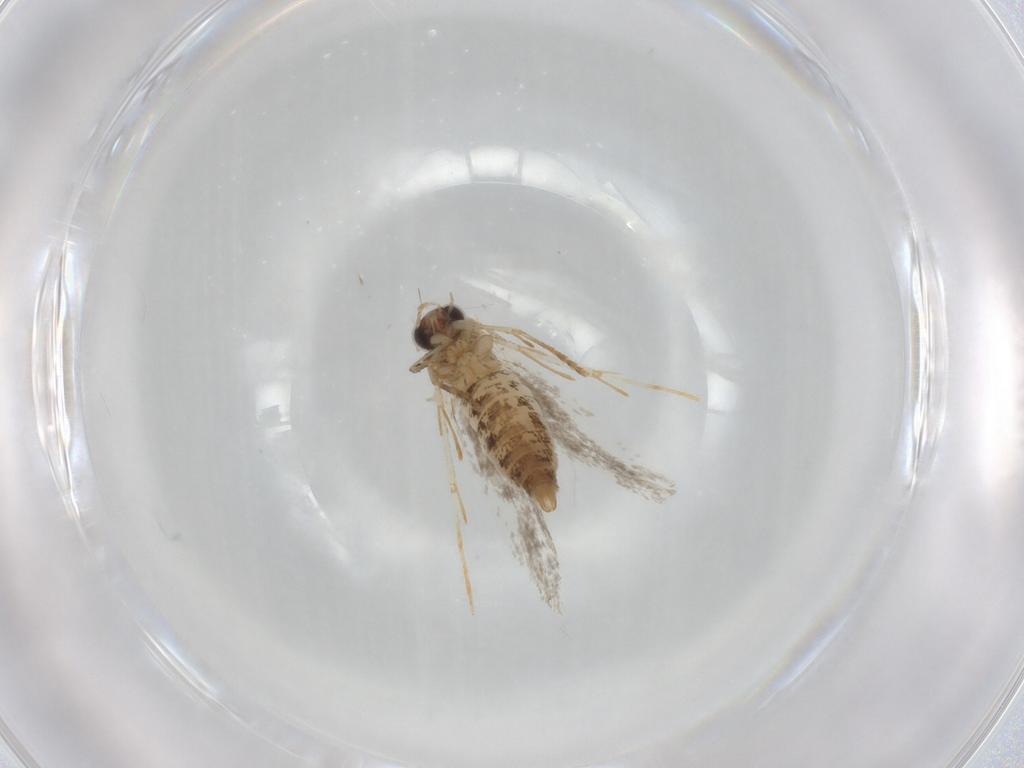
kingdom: Animalia
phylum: Arthropoda
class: Insecta
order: Lepidoptera
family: Tineidae
